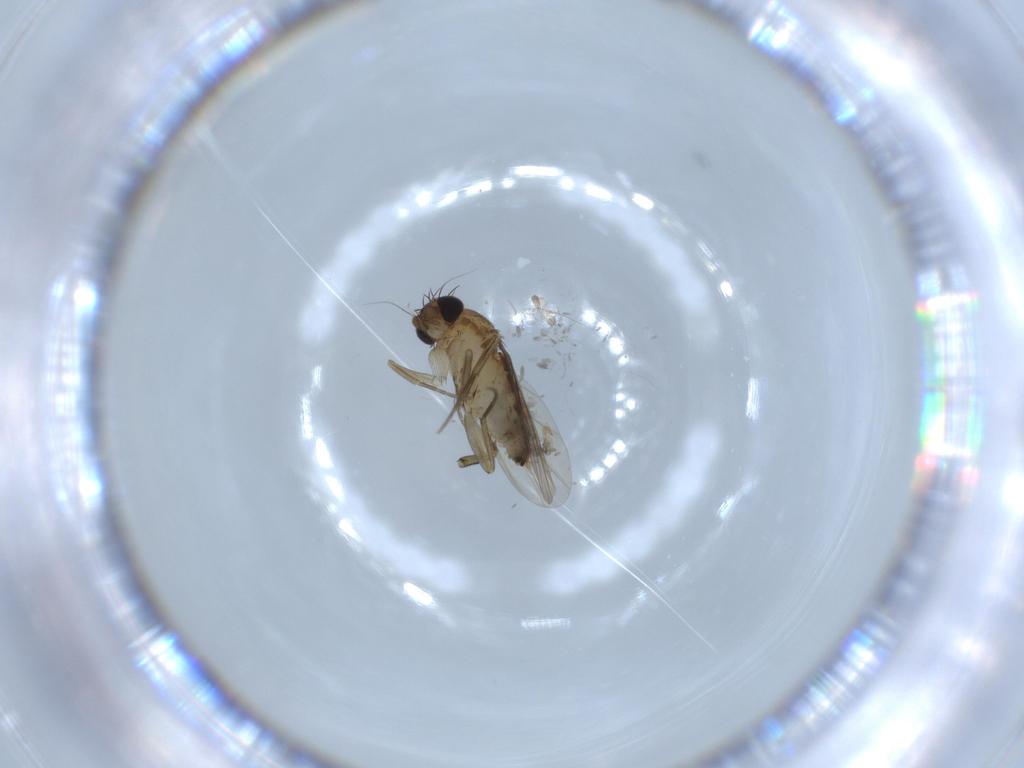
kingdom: Animalia
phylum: Arthropoda
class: Insecta
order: Diptera
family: Phoridae
